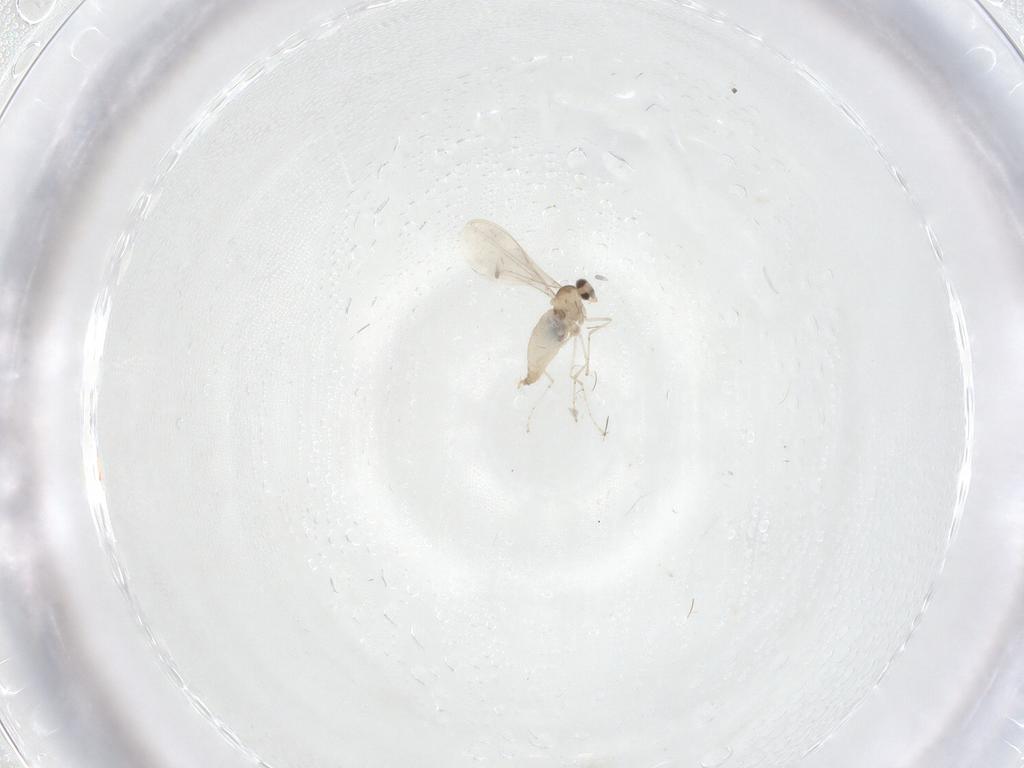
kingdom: Animalia
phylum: Arthropoda
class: Insecta
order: Diptera
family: Cecidomyiidae
